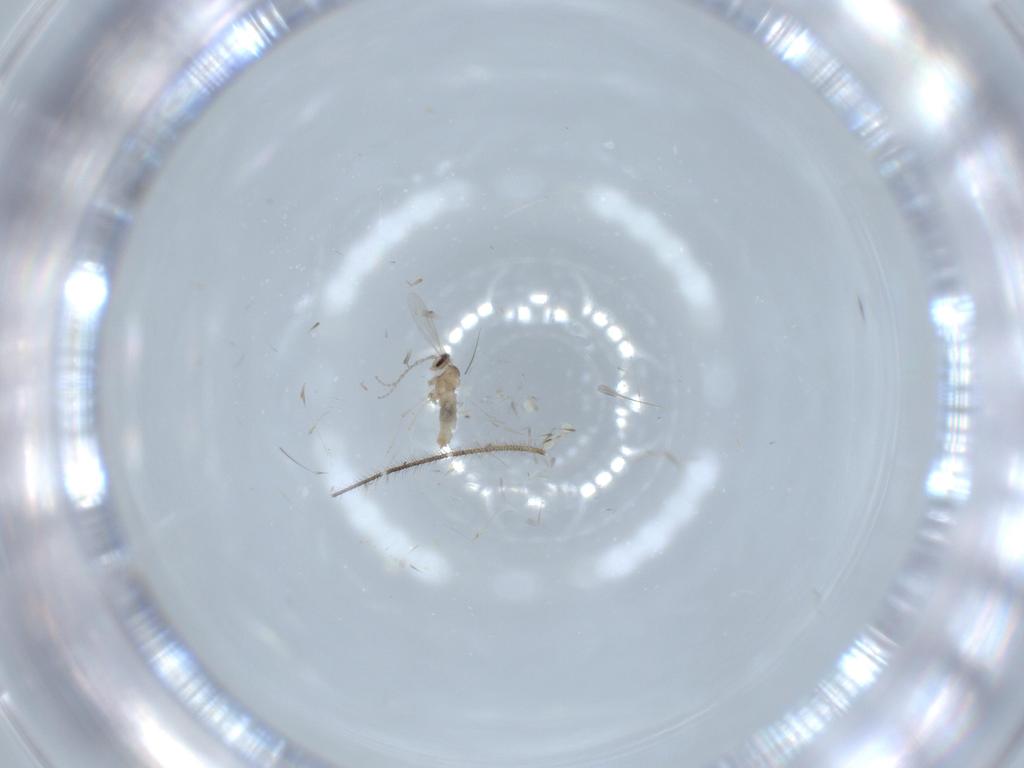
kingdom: Animalia
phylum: Arthropoda
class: Insecta
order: Diptera
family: Cecidomyiidae
